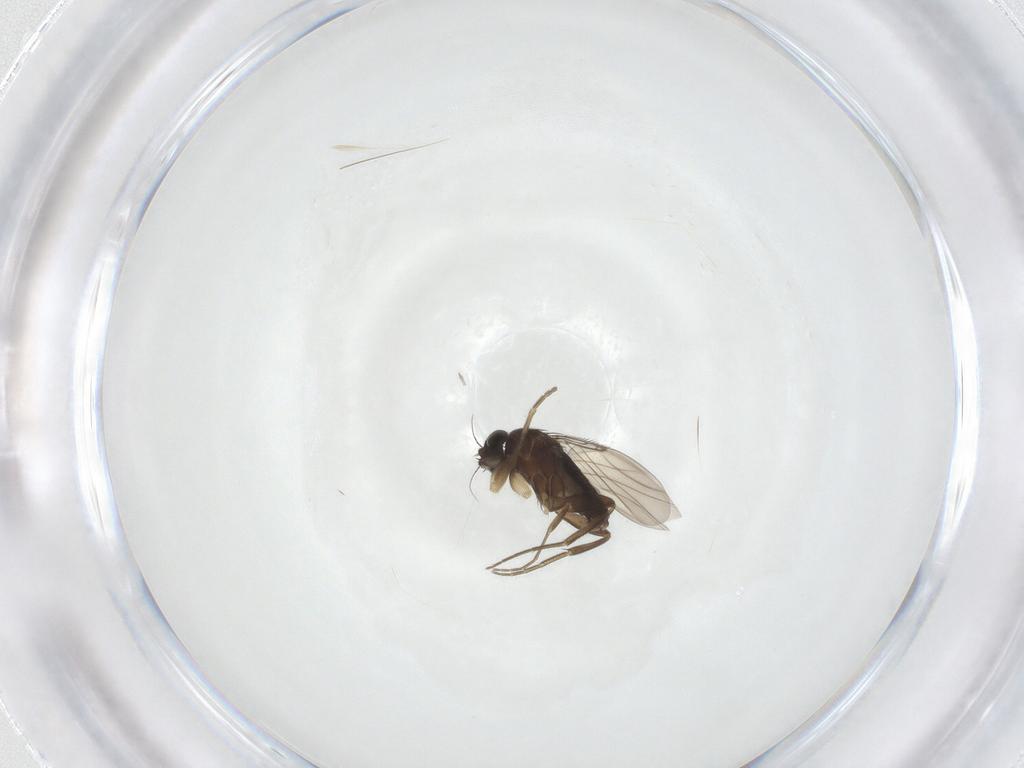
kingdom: Animalia
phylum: Arthropoda
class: Insecta
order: Diptera
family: Phoridae
